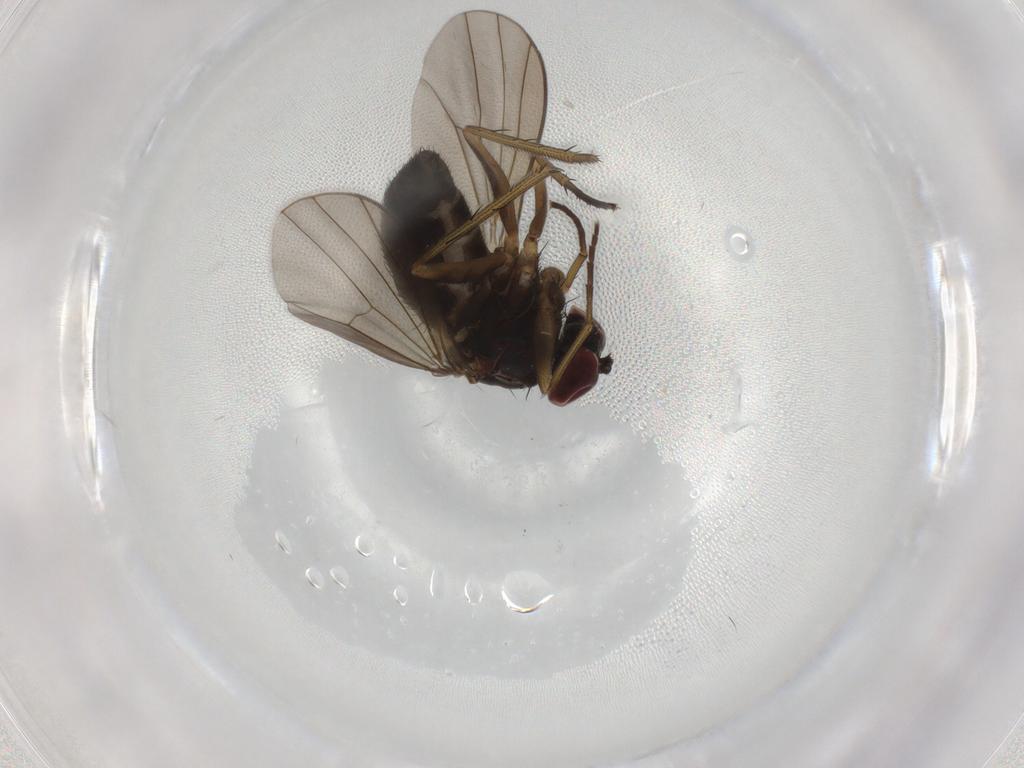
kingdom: Animalia
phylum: Arthropoda
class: Insecta
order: Diptera
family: Dolichopodidae
